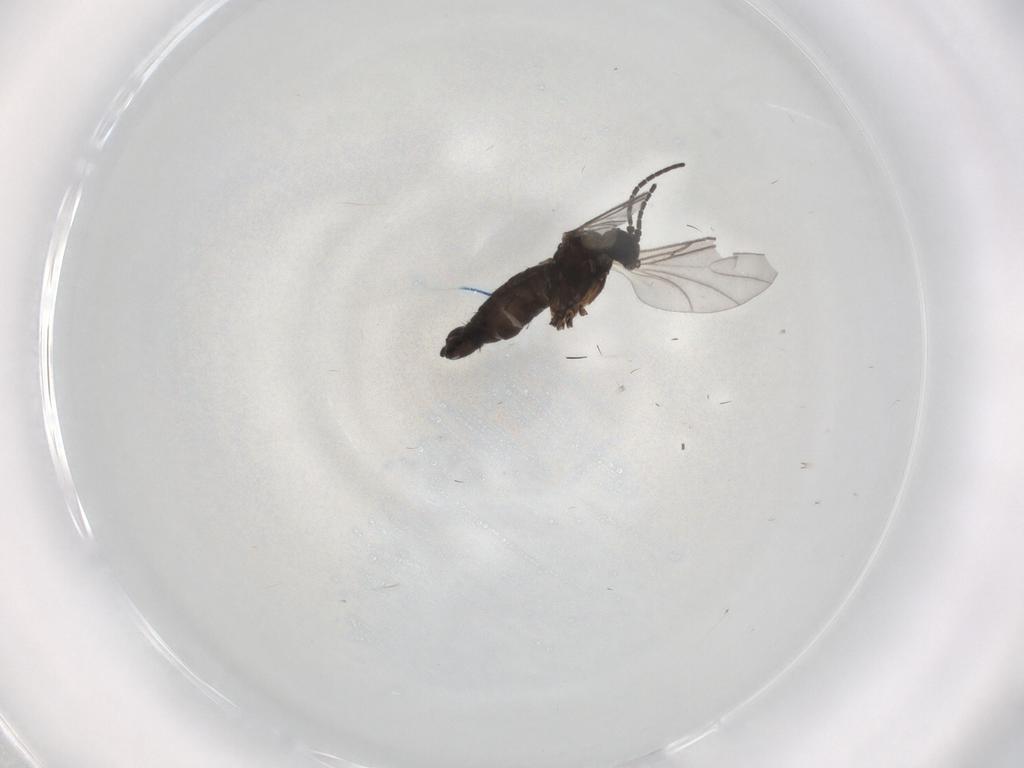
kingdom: Animalia
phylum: Arthropoda
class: Insecta
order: Diptera
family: Sciaridae
